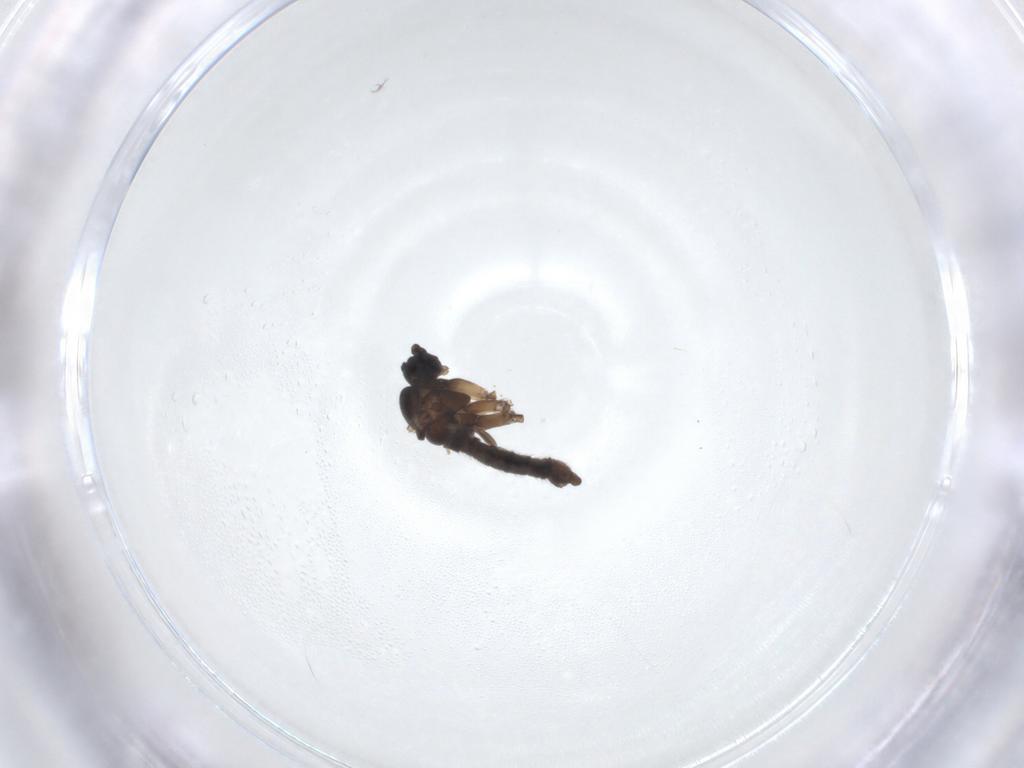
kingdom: Animalia
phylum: Arthropoda
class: Insecta
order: Diptera
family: Sciaridae
